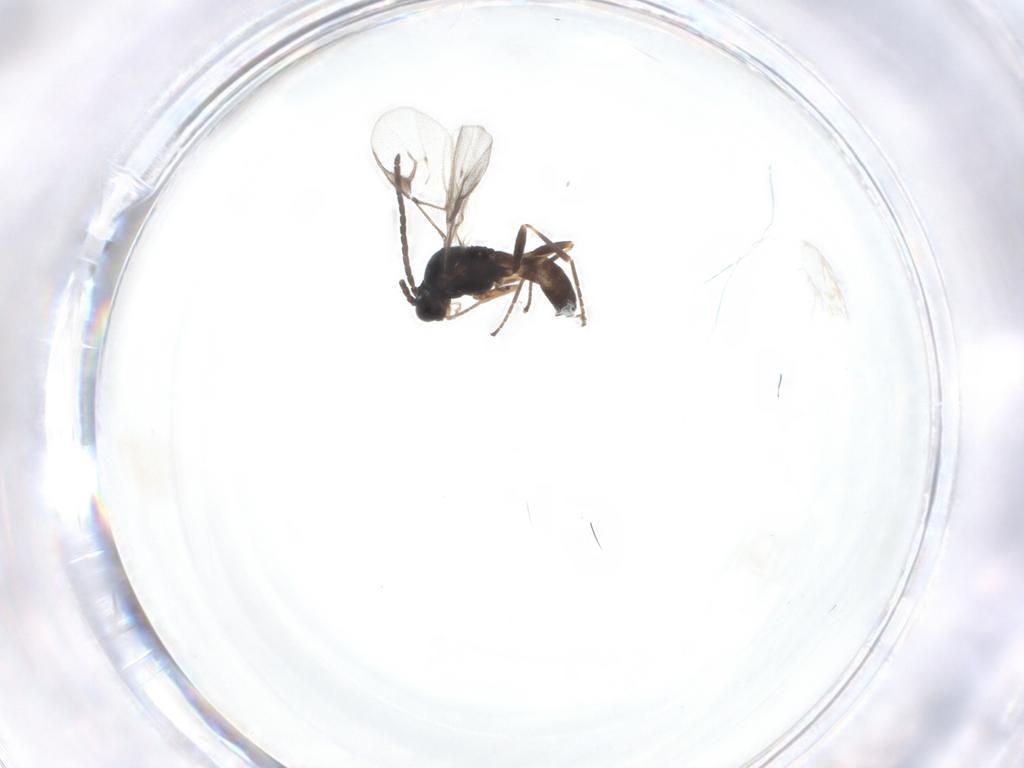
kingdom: Animalia
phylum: Arthropoda
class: Insecta
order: Hymenoptera
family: Braconidae
